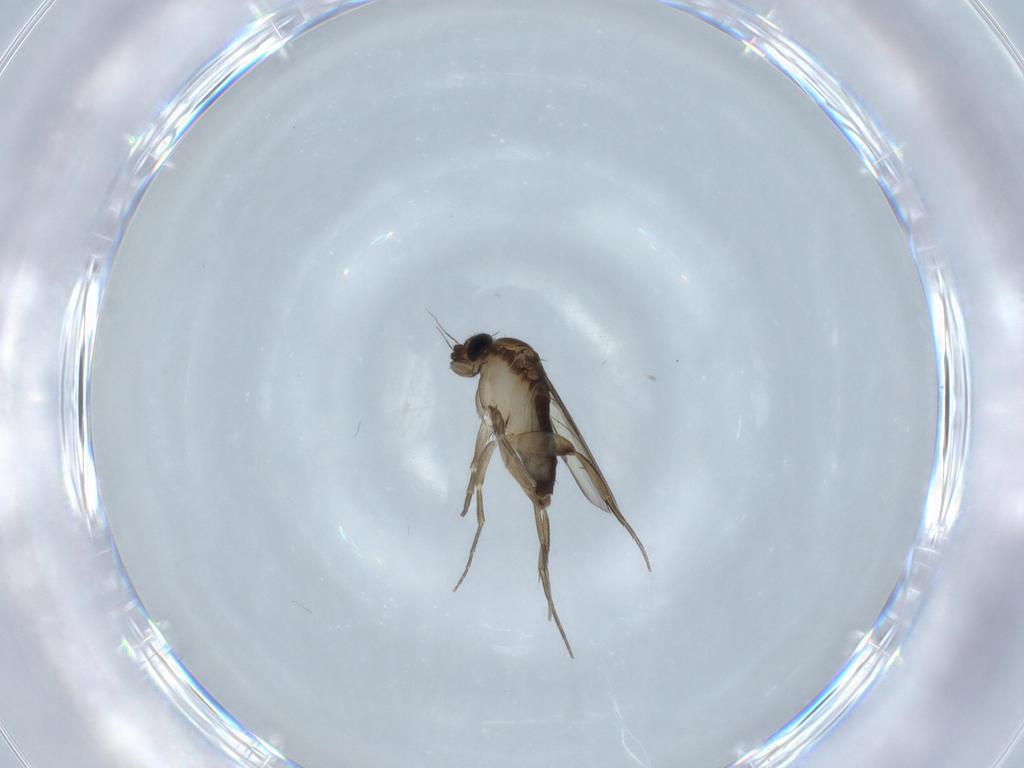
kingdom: Animalia
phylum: Arthropoda
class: Insecta
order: Diptera
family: Phoridae
